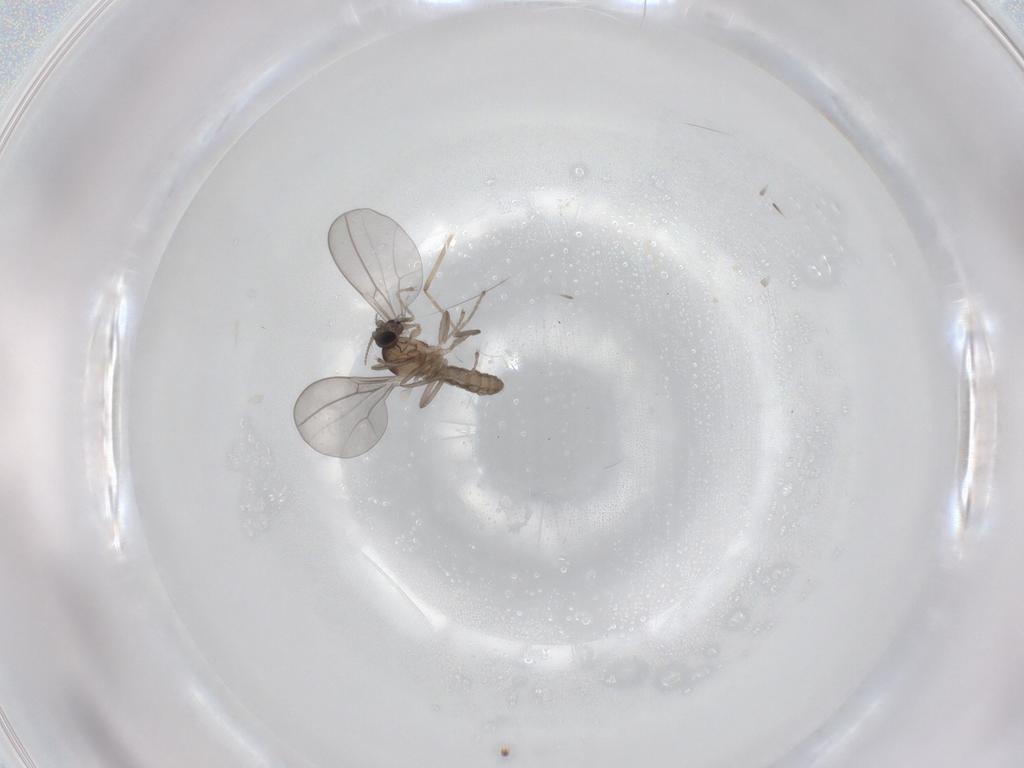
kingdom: Animalia
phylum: Arthropoda
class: Insecta
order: Diptera
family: Chironomidae
